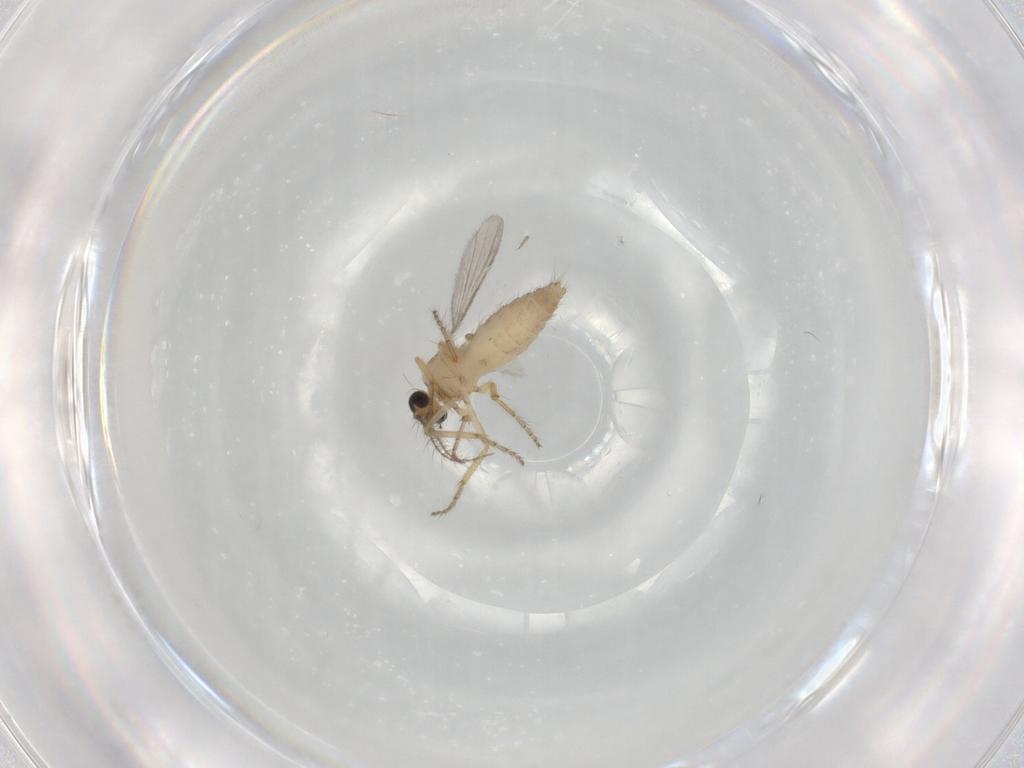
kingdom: Animalia
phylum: Arthropoda
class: Insecta
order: Diptera
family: Ceratopogonidae
